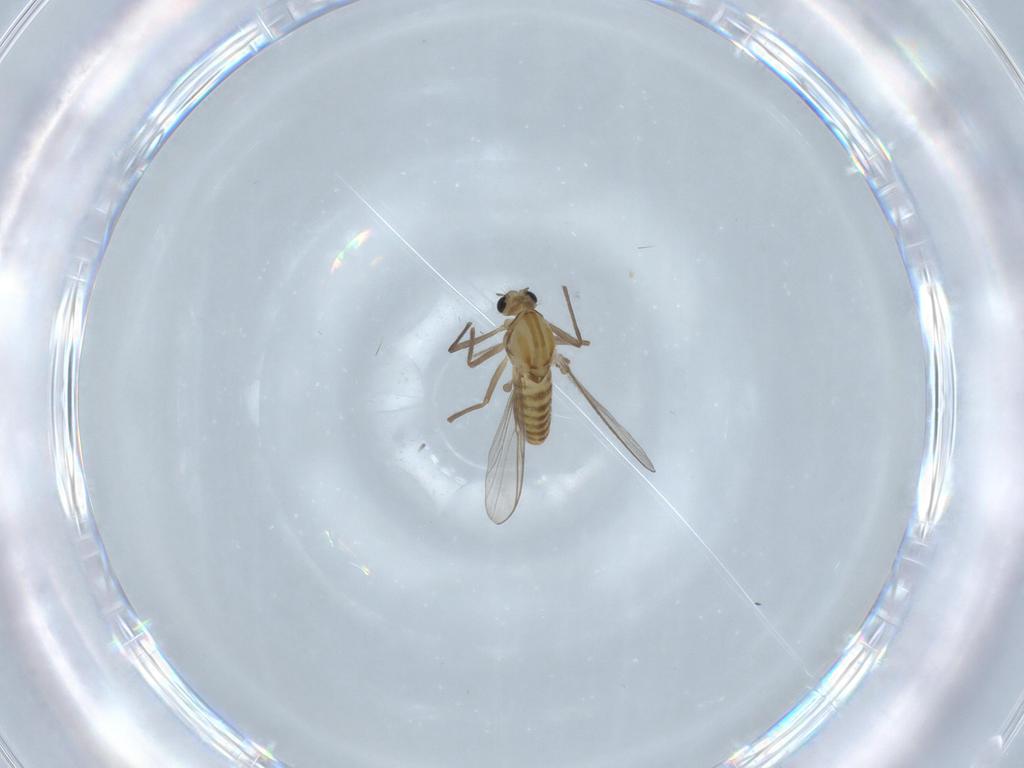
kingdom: Animalia
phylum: Arthropoda
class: Insecta
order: Diptera
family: Chironomidae
